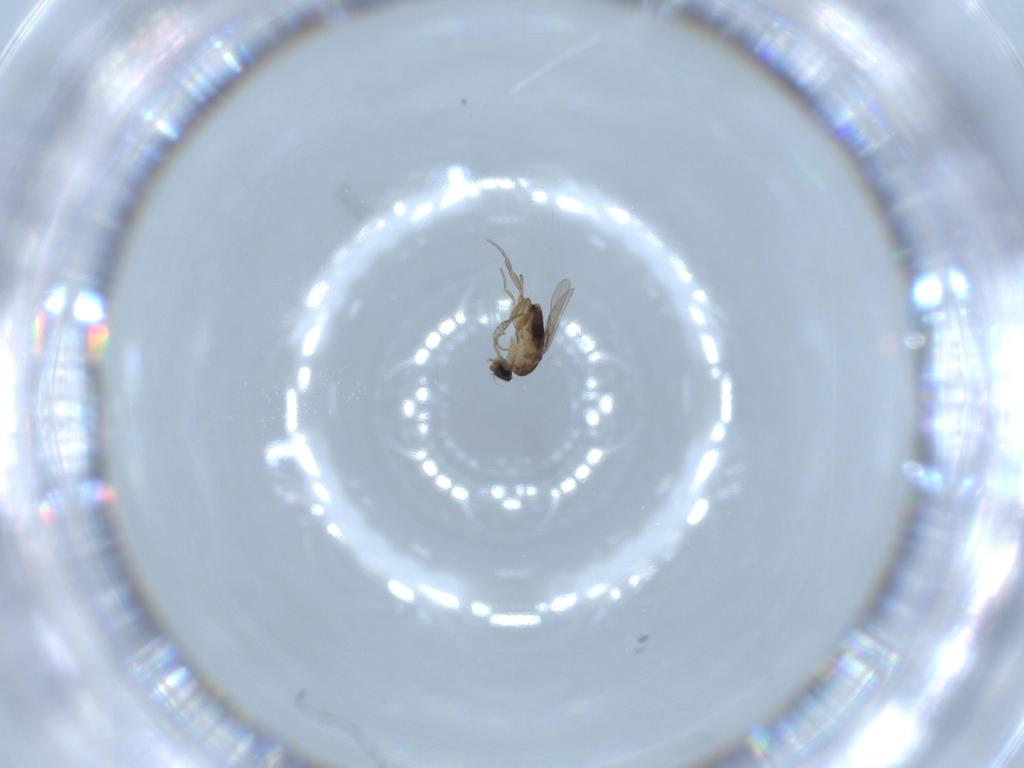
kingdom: Animalia
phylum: Arthropoda
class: Insecta
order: Diptera
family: Phoridae
